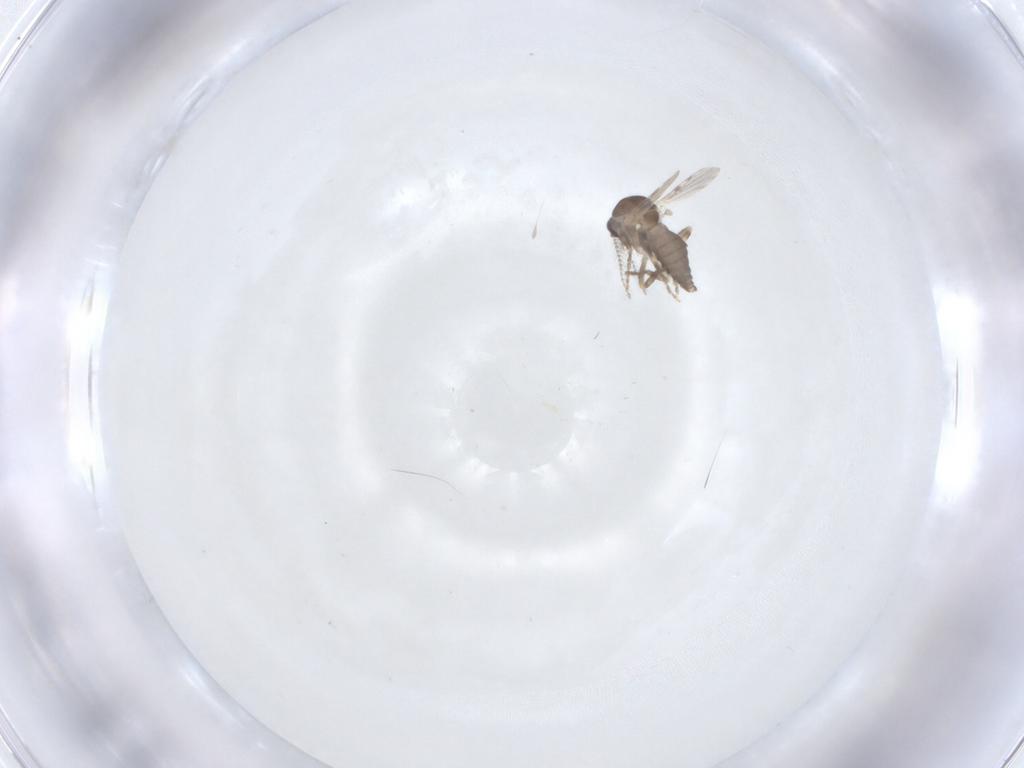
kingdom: Animalia
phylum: Arthropoda
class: Insecta
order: Diptera
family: Ceratopogonidae
